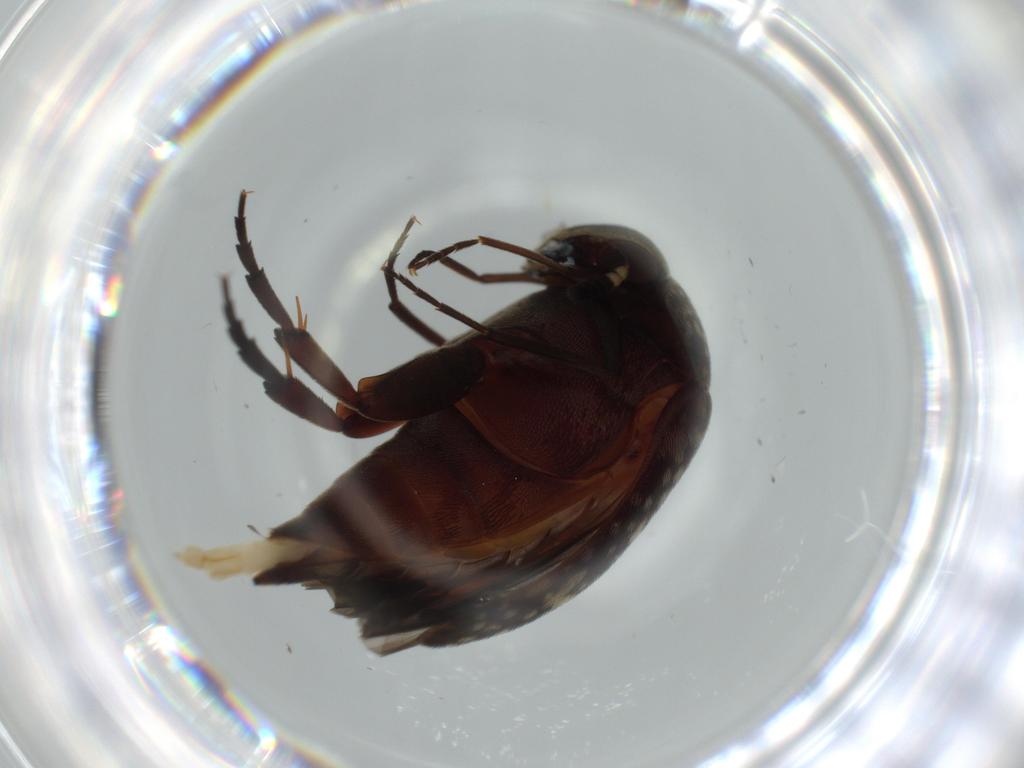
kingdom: Animalia
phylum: Arthropoda
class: Insecta
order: Coleoptera
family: Scirtidae
